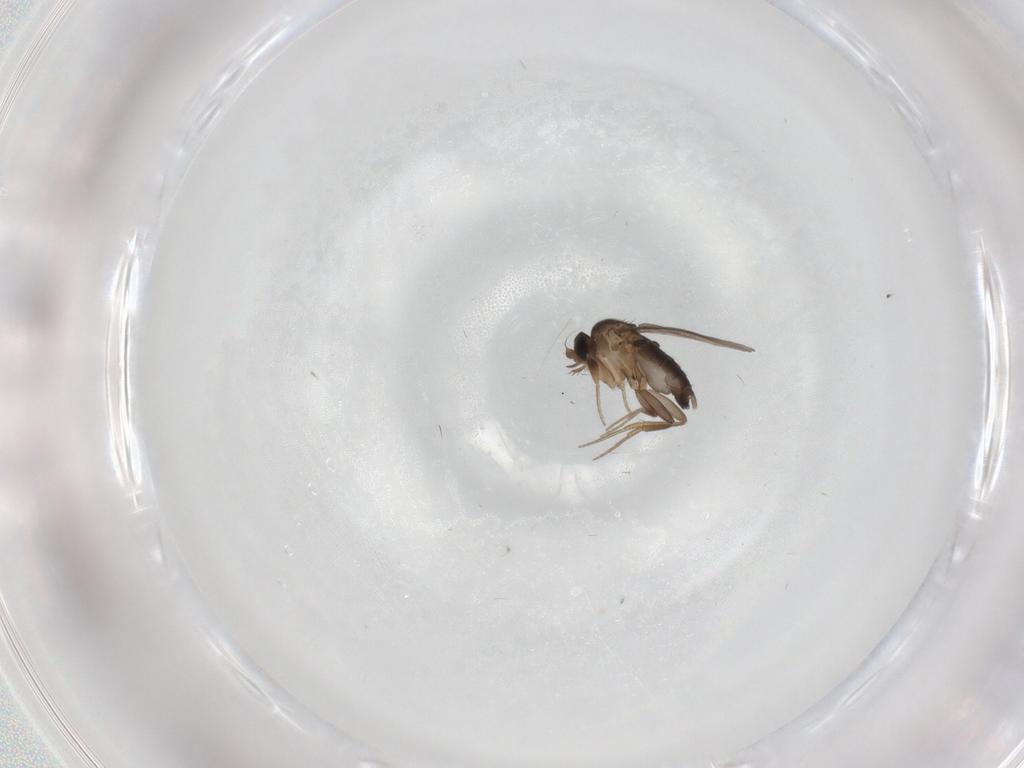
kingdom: Animalia
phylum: Arthropoda
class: Insecta
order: Diptera
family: Phoridae
